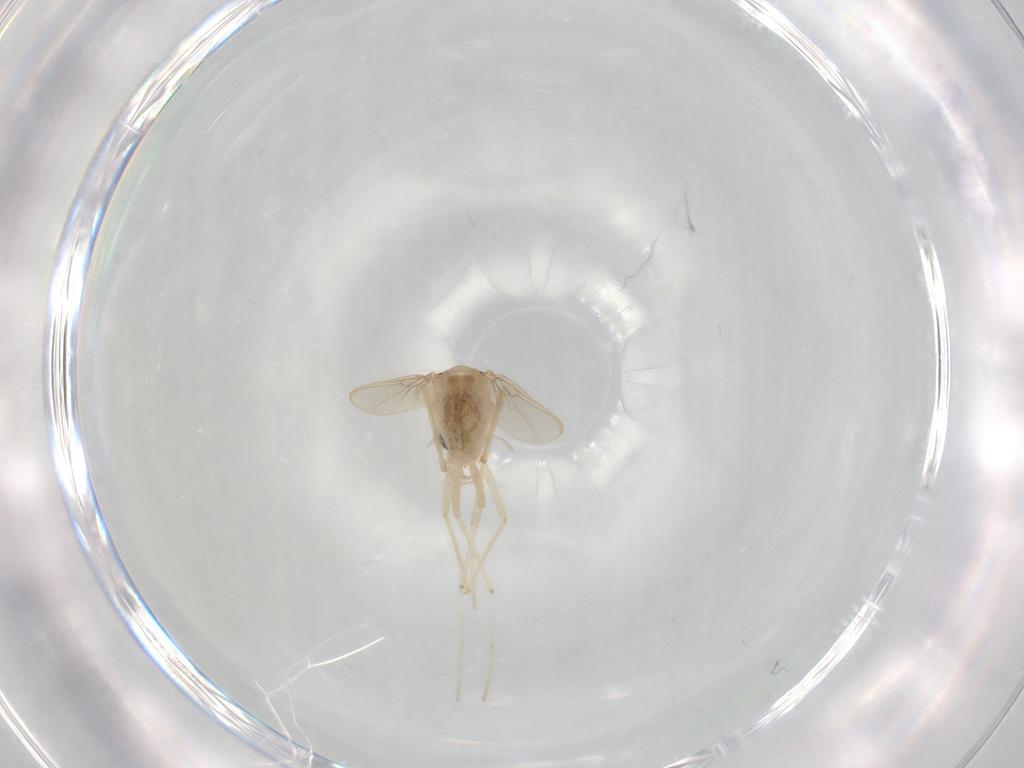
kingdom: Animalia
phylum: Arthropoda
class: Insecta
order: Diptera
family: Chironomidae
